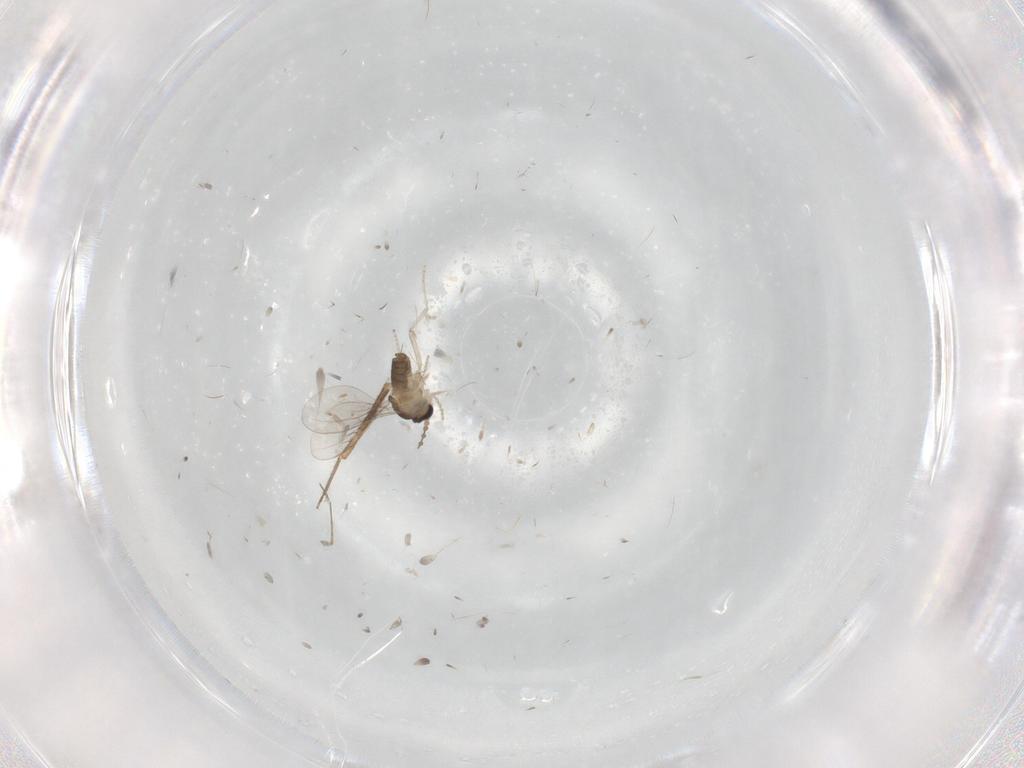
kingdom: Animalia
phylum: Arthropoda
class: Insecta
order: Diptera
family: Cecidomyiidae
